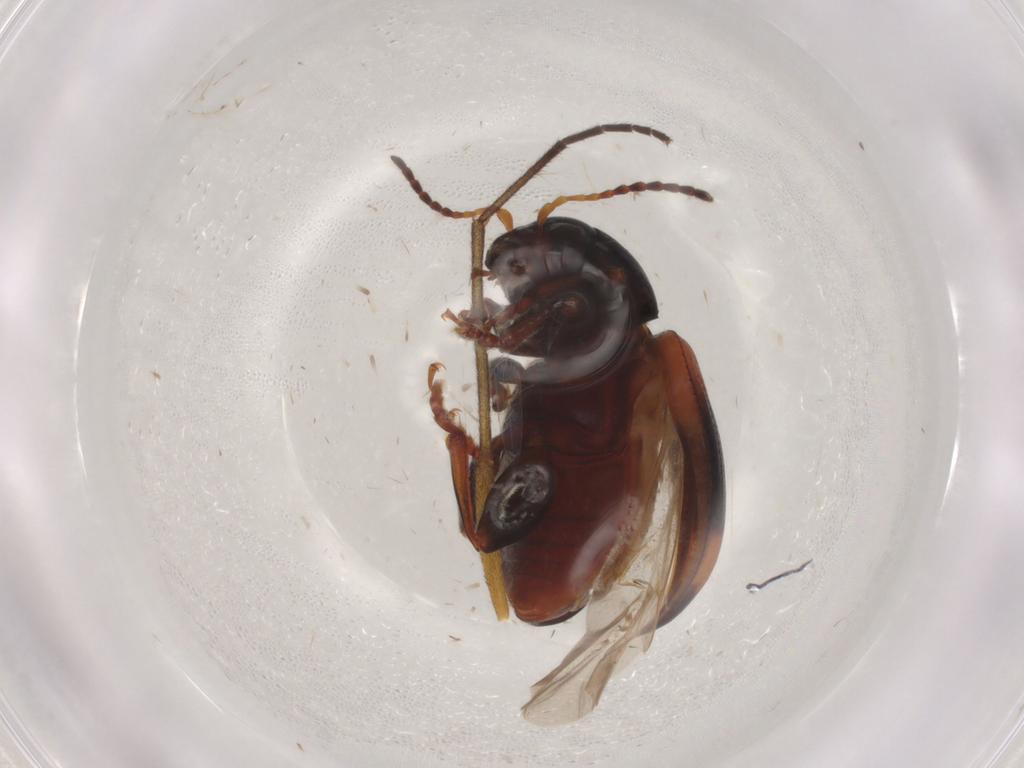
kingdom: Animalia
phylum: Arthropoda
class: Insecta
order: Coleoptera
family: Chrysomelidae
